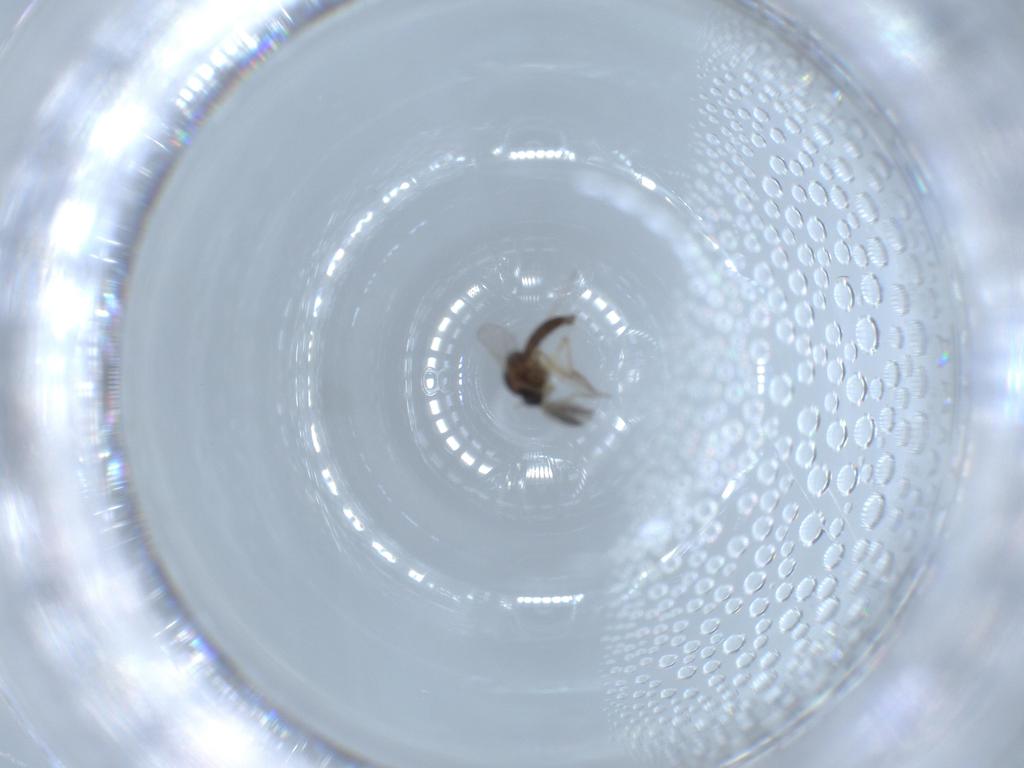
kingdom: Animalia
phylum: Arthropoda
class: Insecta
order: Diptera
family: Ceratopogonidae
